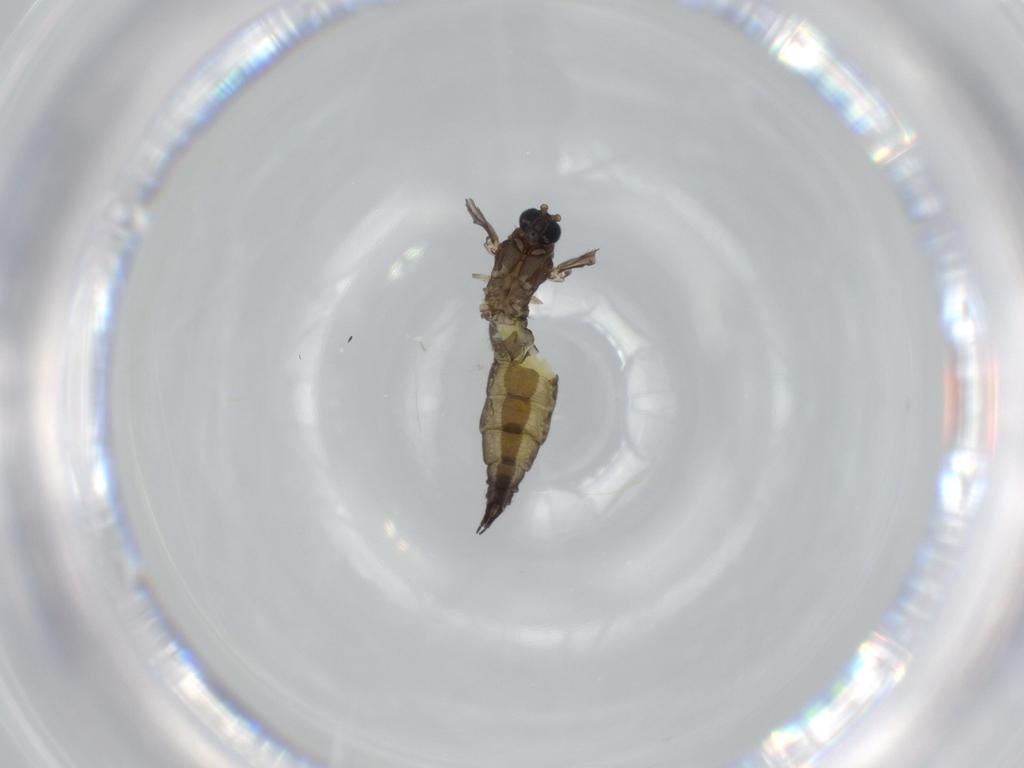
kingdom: Animalia
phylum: Arthropoda
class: Insecta
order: Diptera
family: Sciaridae
